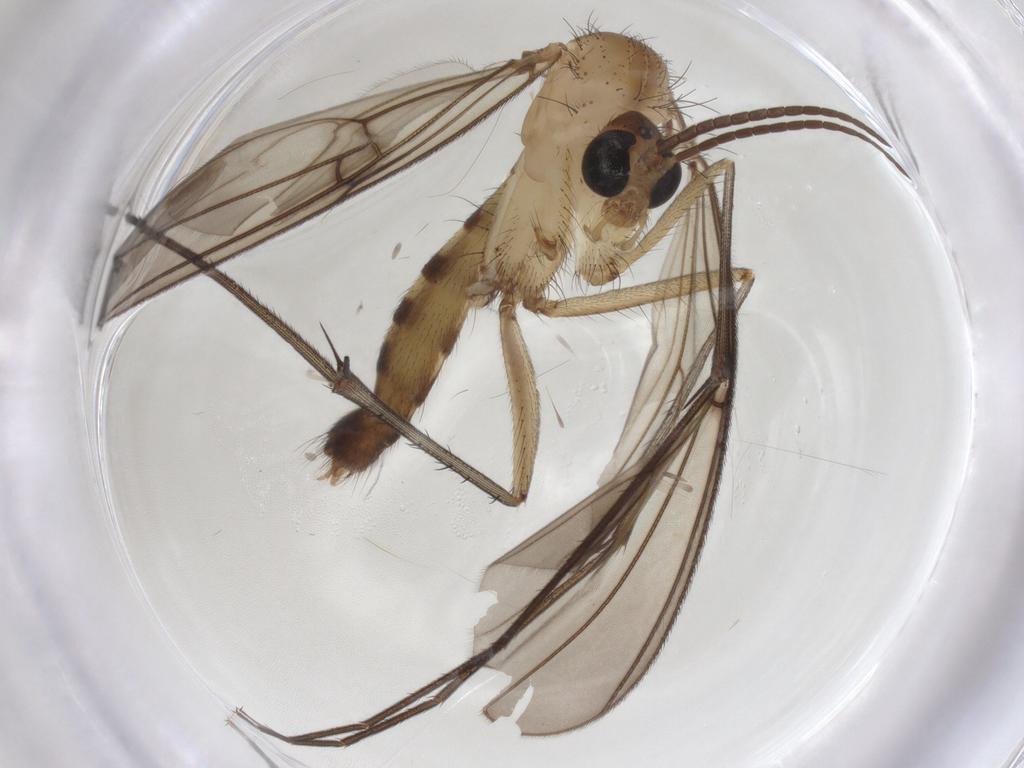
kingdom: Animalia
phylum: Arthropoda
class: Insecta
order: Diptera
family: Mycetophilidae
